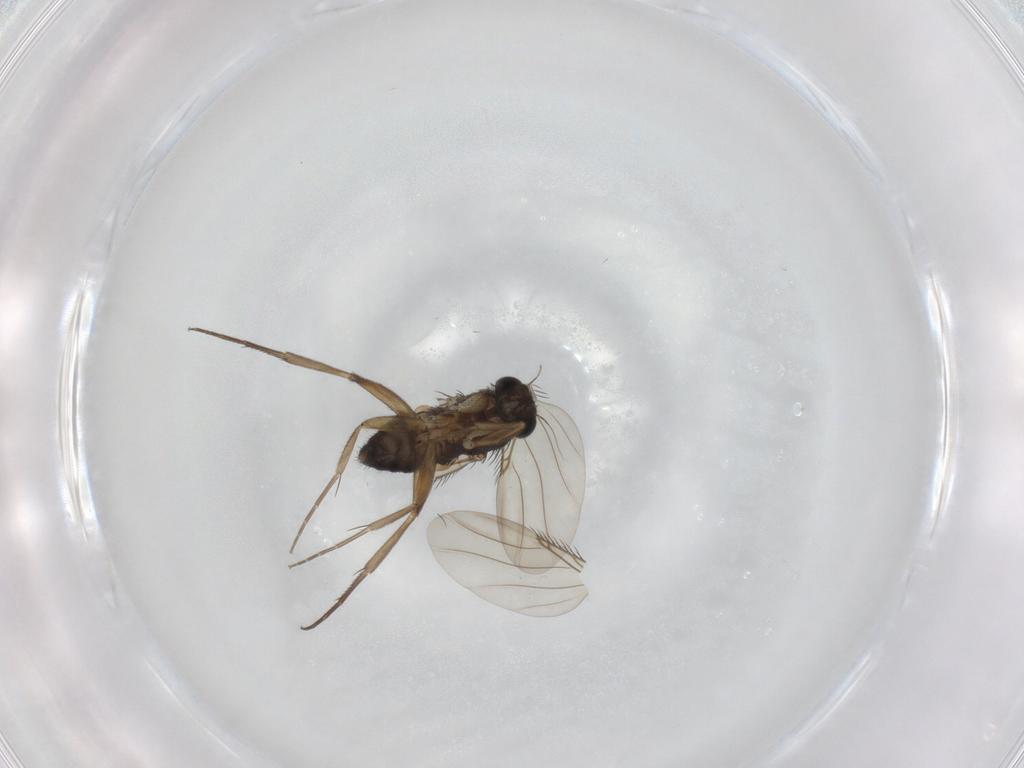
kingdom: Animalia
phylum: Arthropoda
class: Insecta
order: Diptera
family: Phoridae
